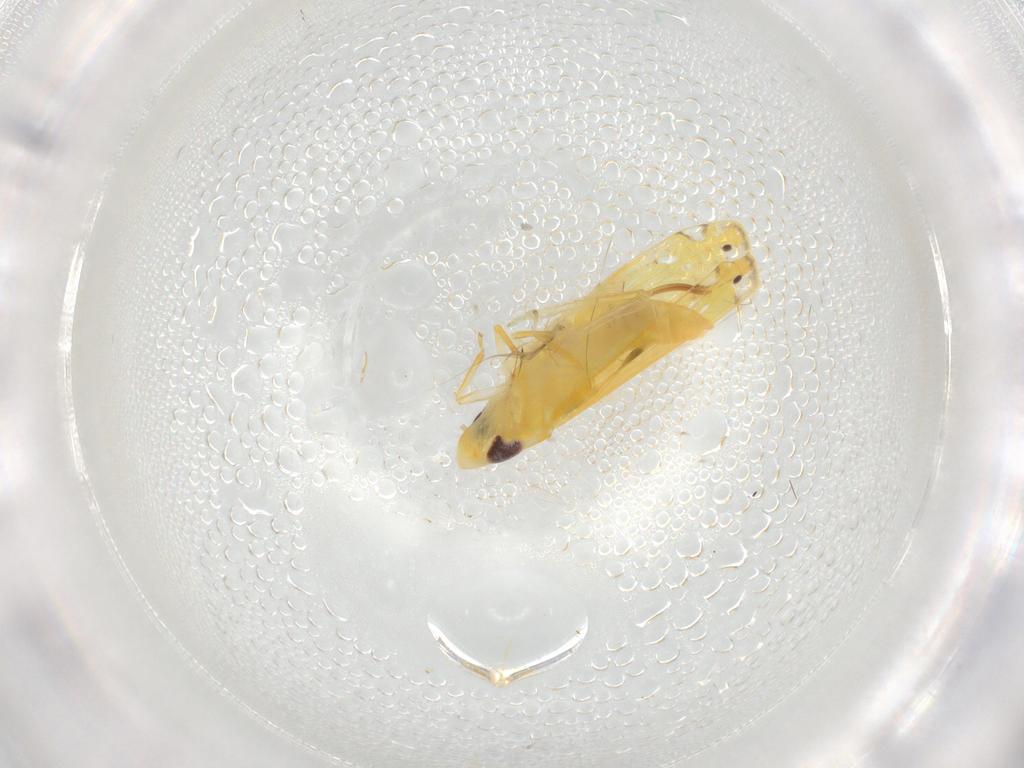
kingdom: Animalia
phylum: Arthropoda
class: Insecta
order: Hemiptera
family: Cicadellidae
